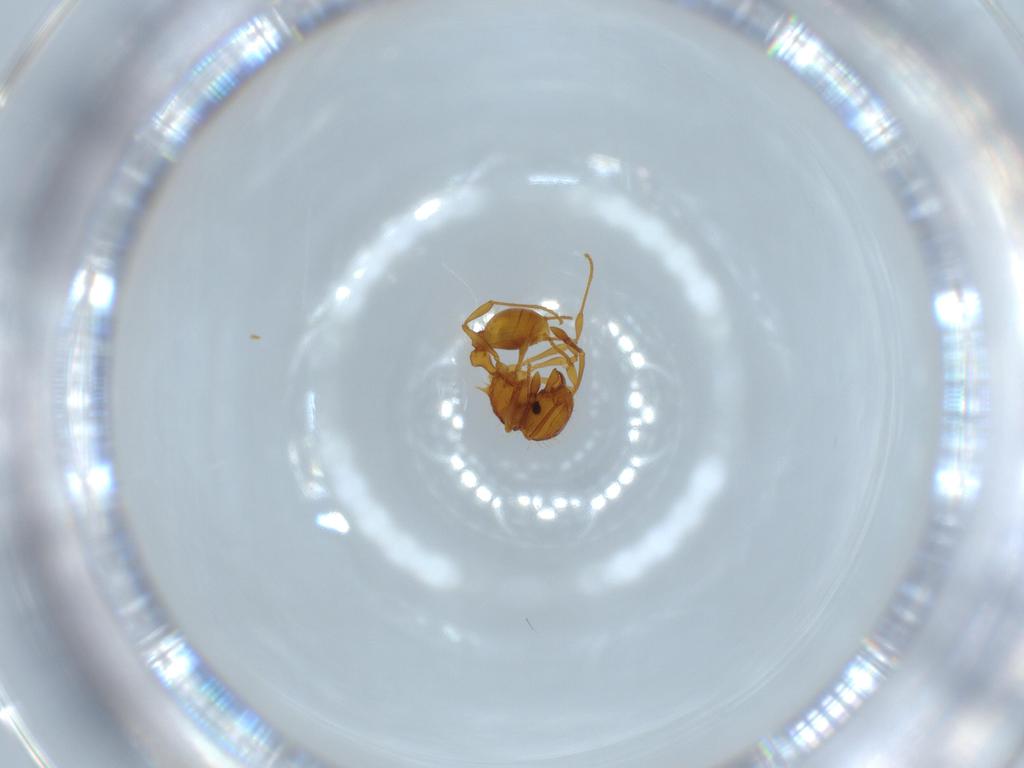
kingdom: Animalia
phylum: Arthropoda
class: Insecta
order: Hymenoptera
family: Formicidae
